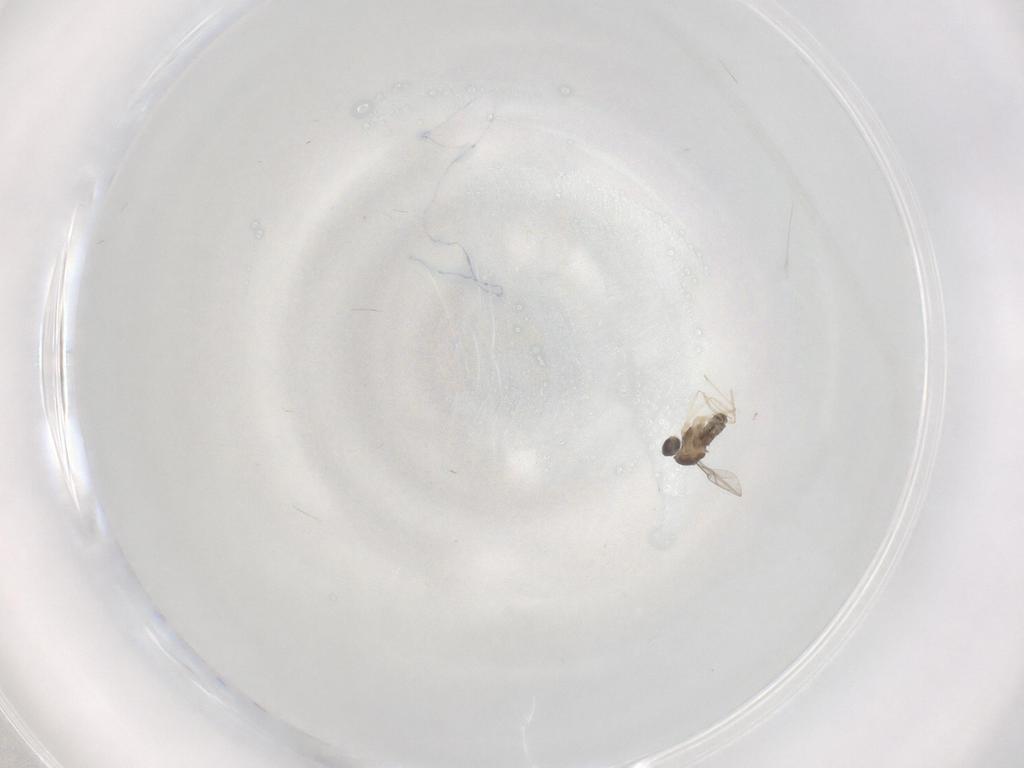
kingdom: Animalia
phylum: Arthropoda
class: Insecta
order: Diptera
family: Cecidomyiidae
